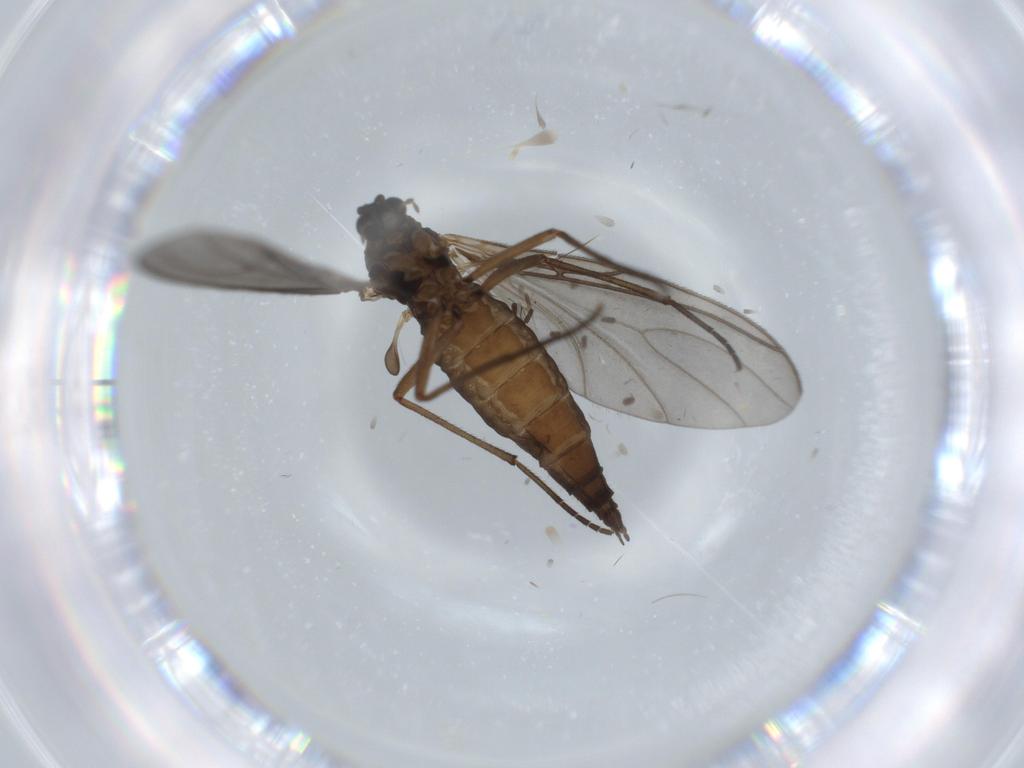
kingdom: Animalia
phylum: Arthropoda
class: Insecta
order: Diptera
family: Sciaridae
